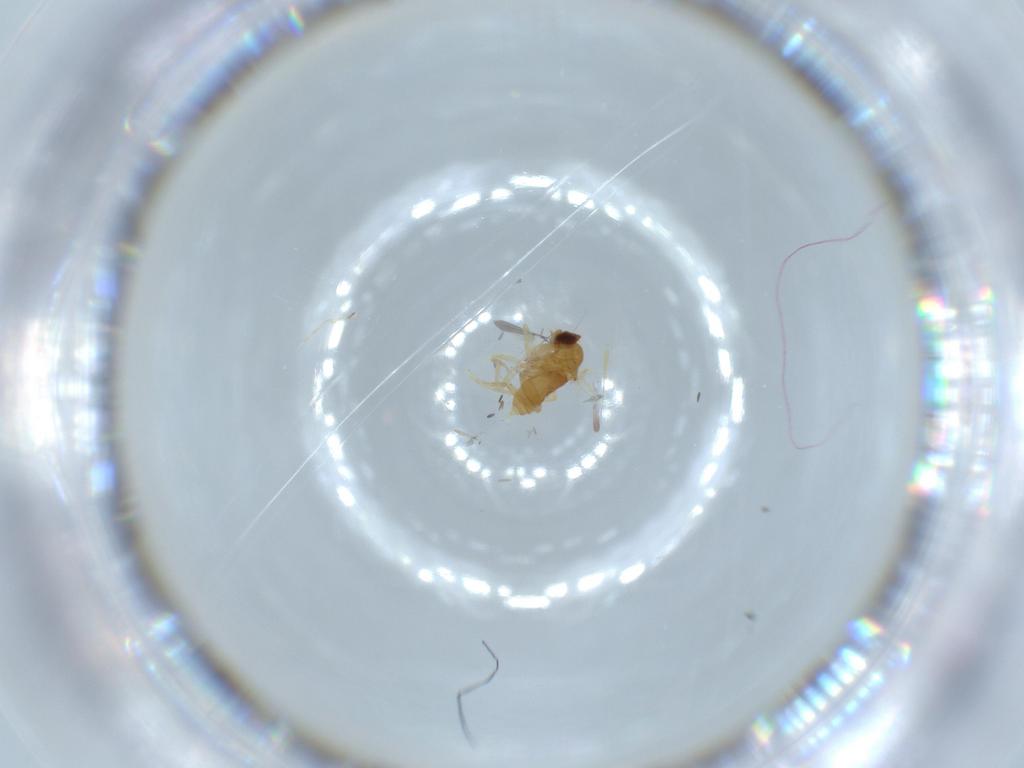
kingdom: Animalia
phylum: Arthropoda
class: Insecta
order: Diptera
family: Sphaeroceridae
